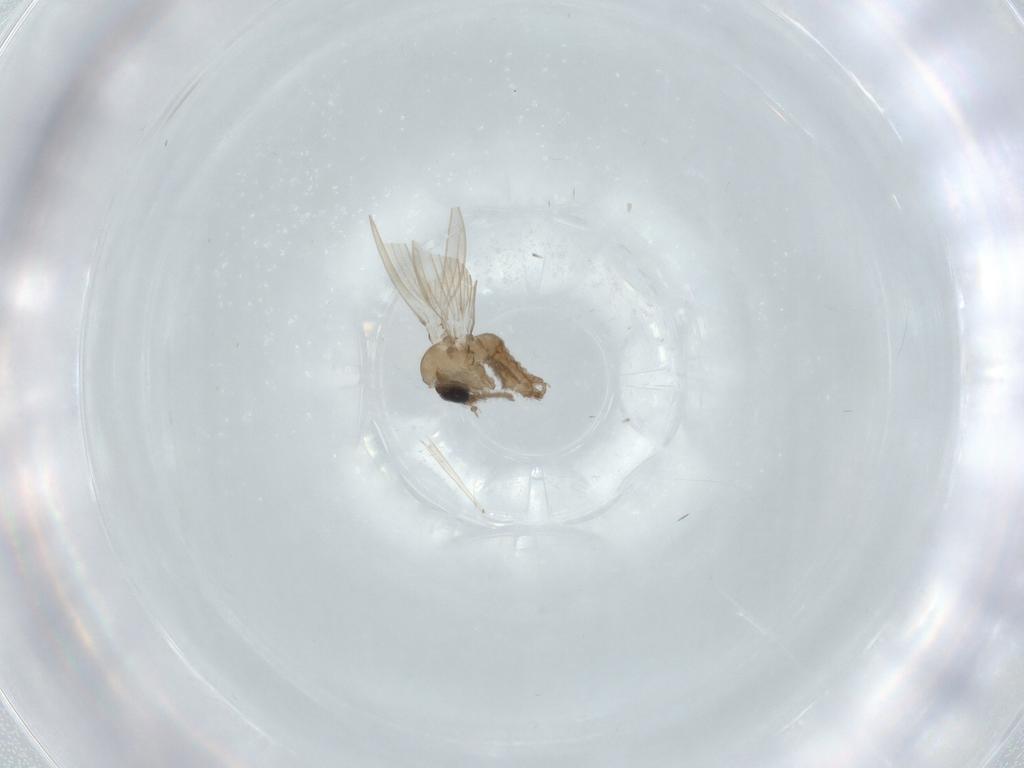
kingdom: Animalia
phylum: Arthropoda
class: Insecta
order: Diptera
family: Psychodidae
